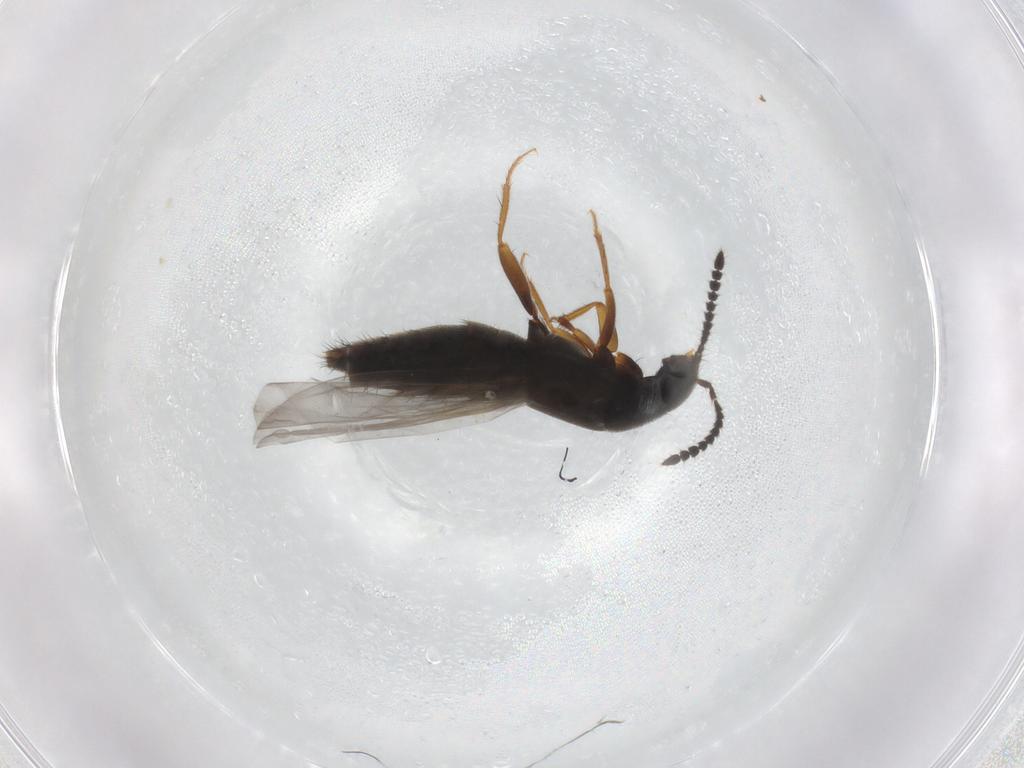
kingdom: Animalia
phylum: Arthropoda
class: Insecta
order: Coleoptera
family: Staphylinidae
